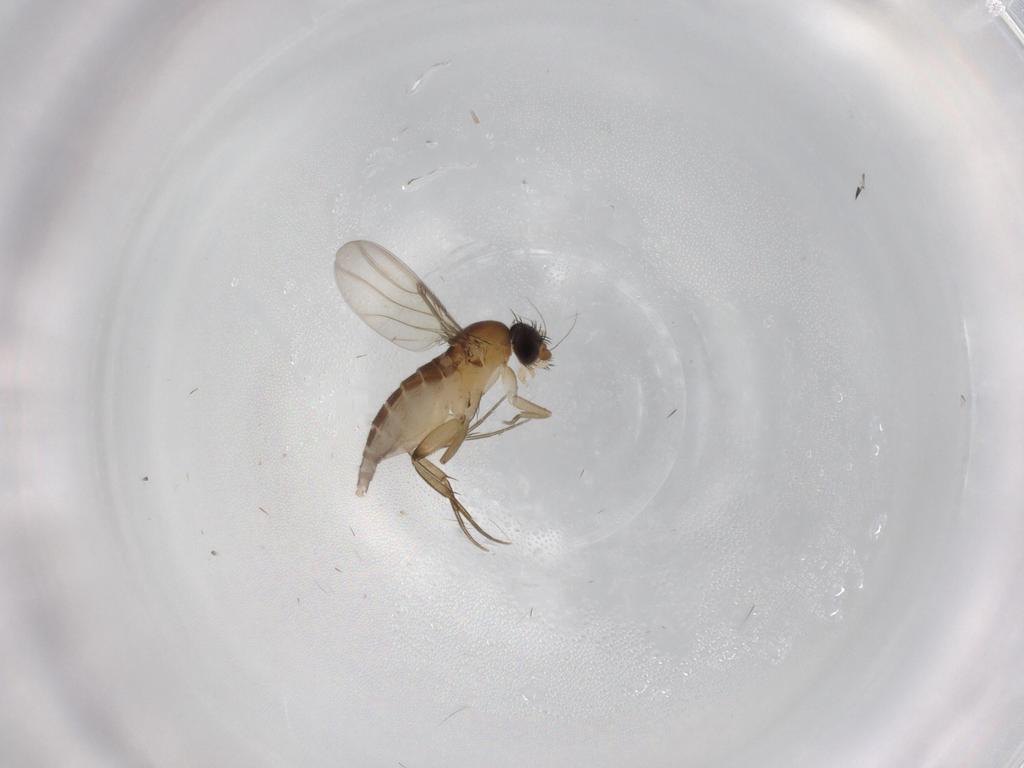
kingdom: Animalia
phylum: Arthropoda
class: Insecta
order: Diptera
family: Phoridae
